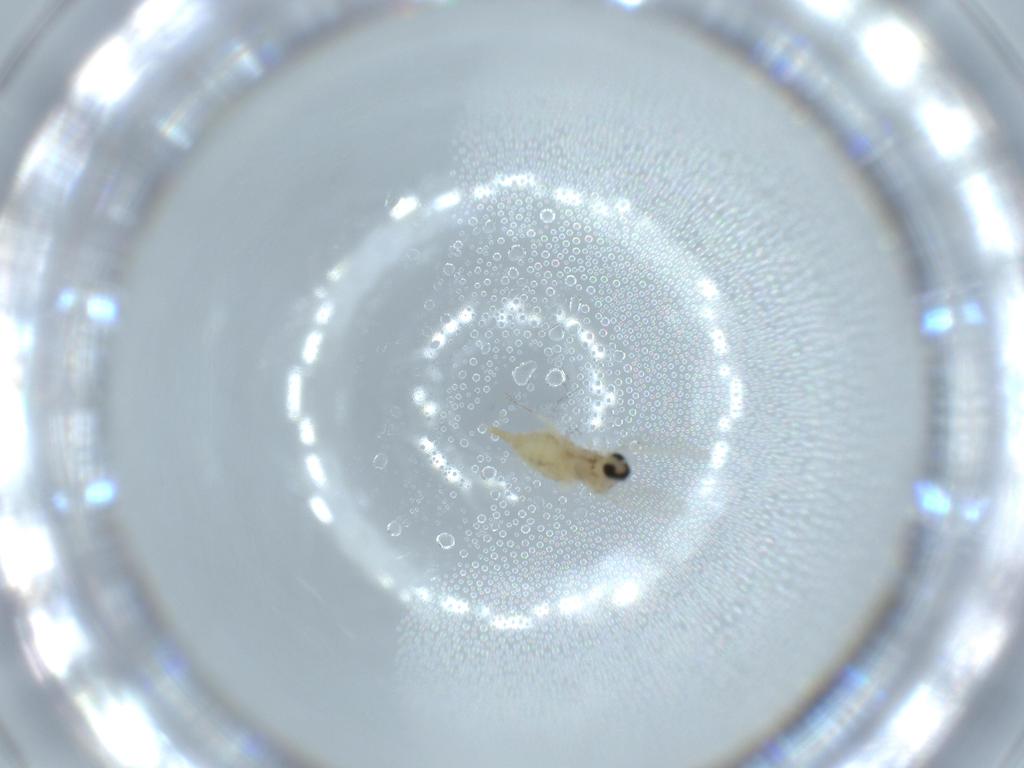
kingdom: Animalia
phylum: Arthropoda
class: Insecta
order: Diptera
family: Cecidomyiidae
